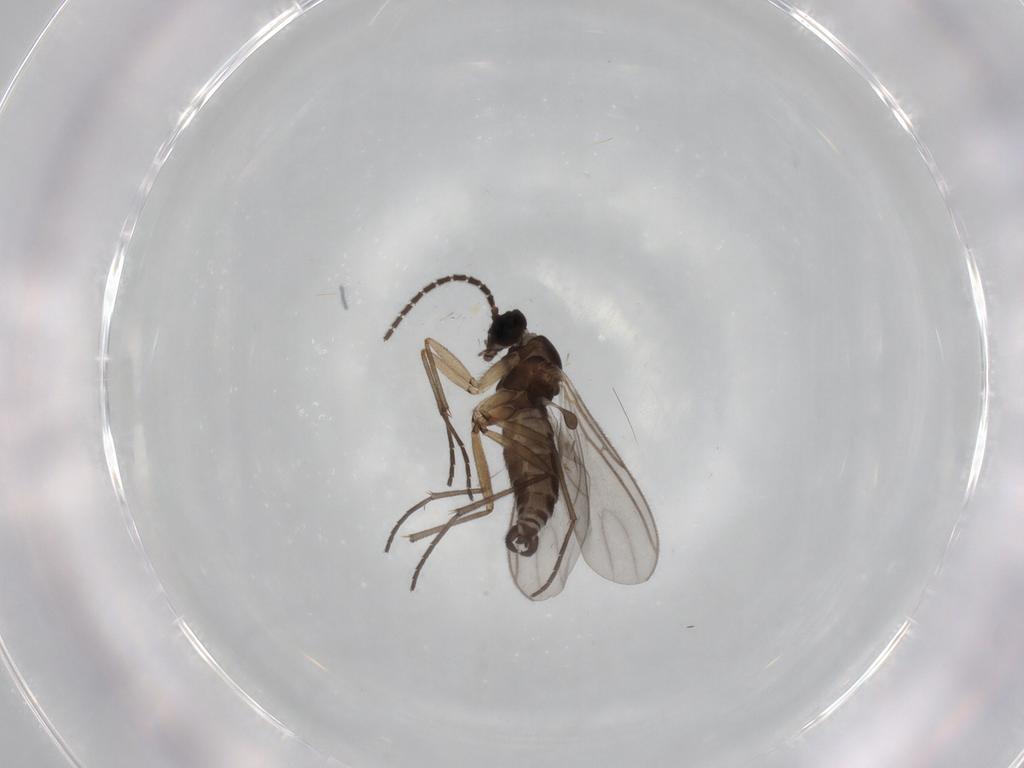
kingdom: Animalia
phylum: Arthropoda
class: Insecta
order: Diptera
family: Sciaridae
